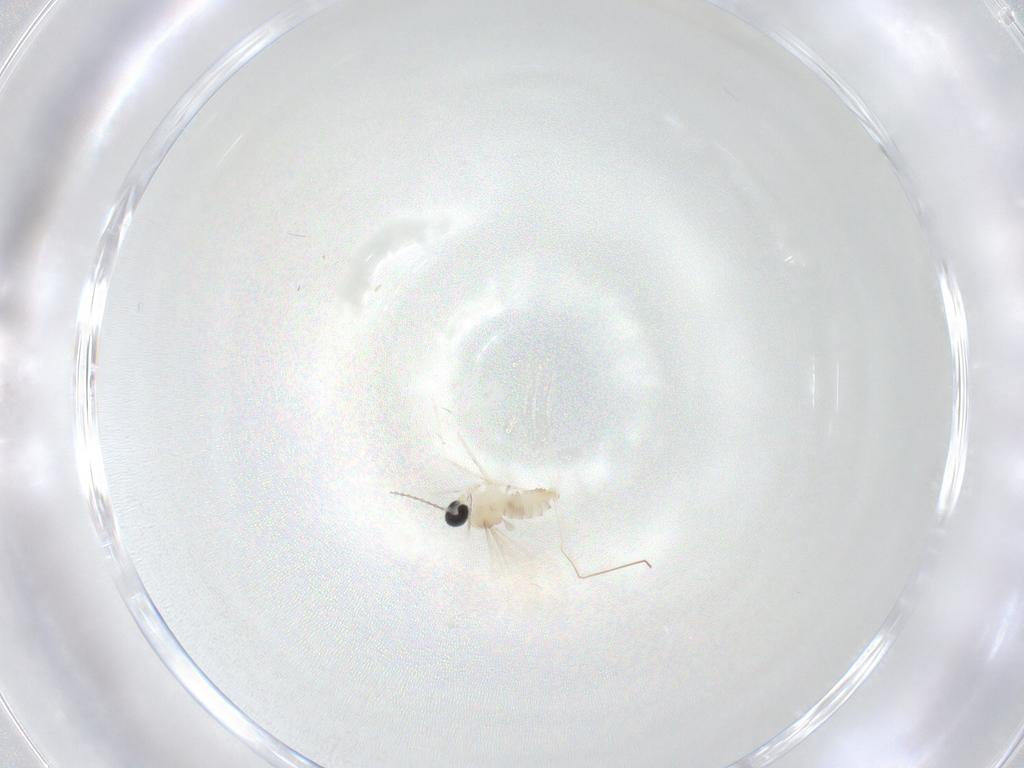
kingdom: Animalia
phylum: Arthropoda
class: Insecta
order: Diptera
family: Cecidomyiidae
